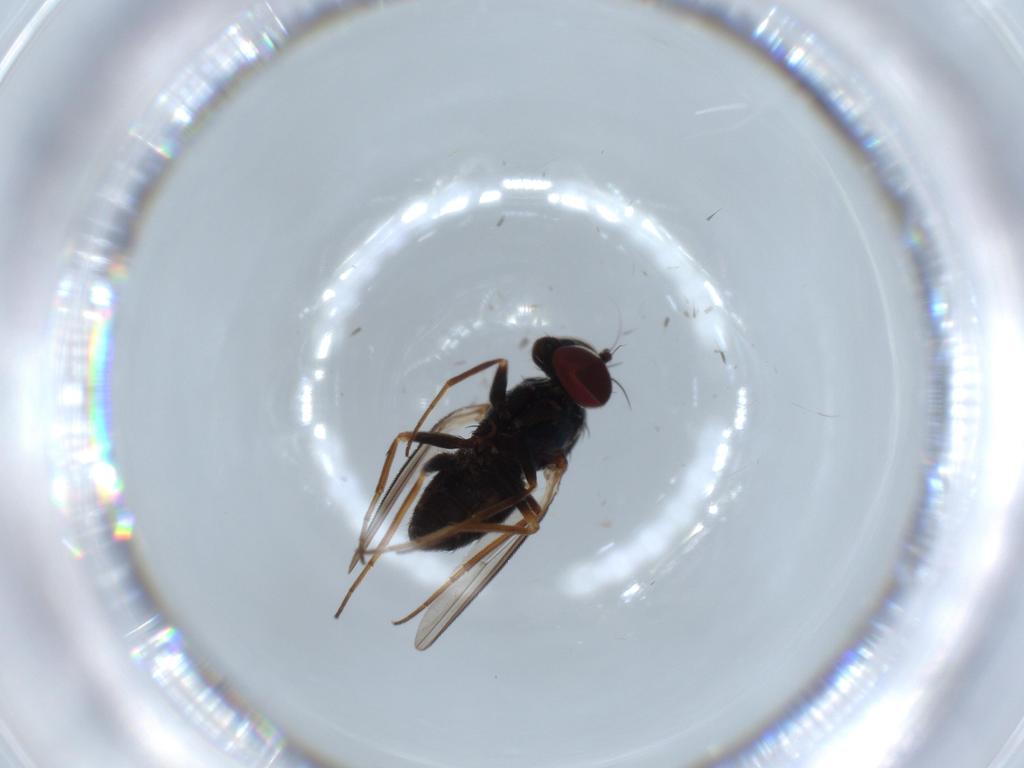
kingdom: Animalia
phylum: Arthropoda
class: Insecta
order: Diptera
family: Dolichopodidae
